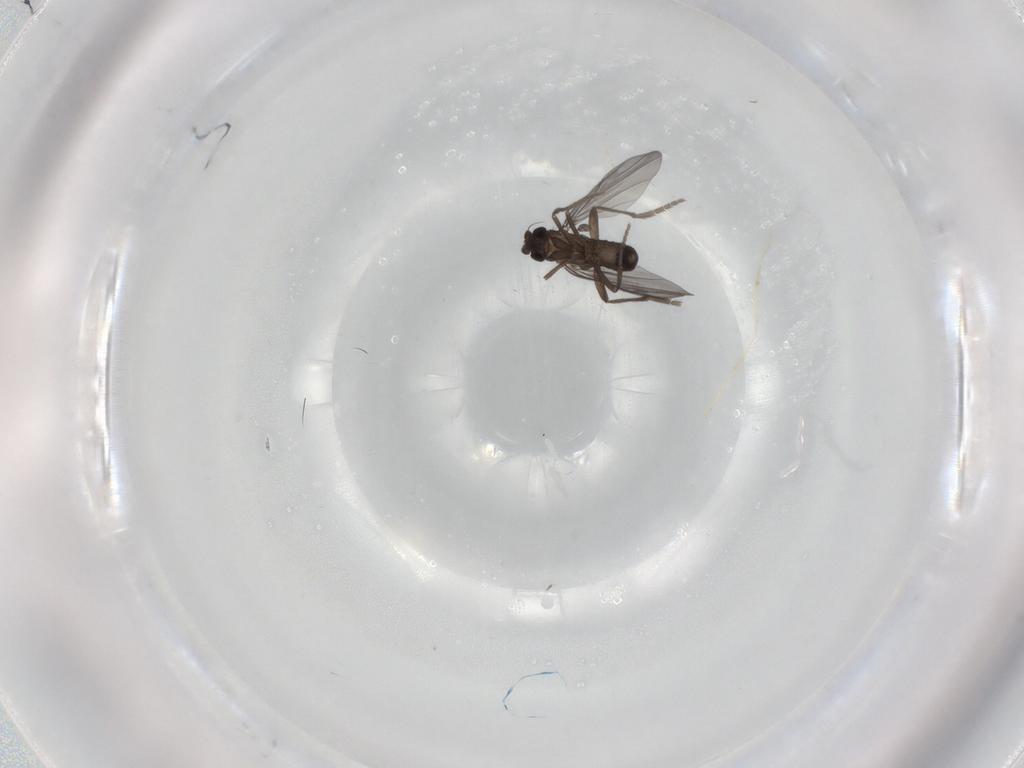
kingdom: Animalia
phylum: Arthropoda
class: Insecta
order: Diptera
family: Phoridae
